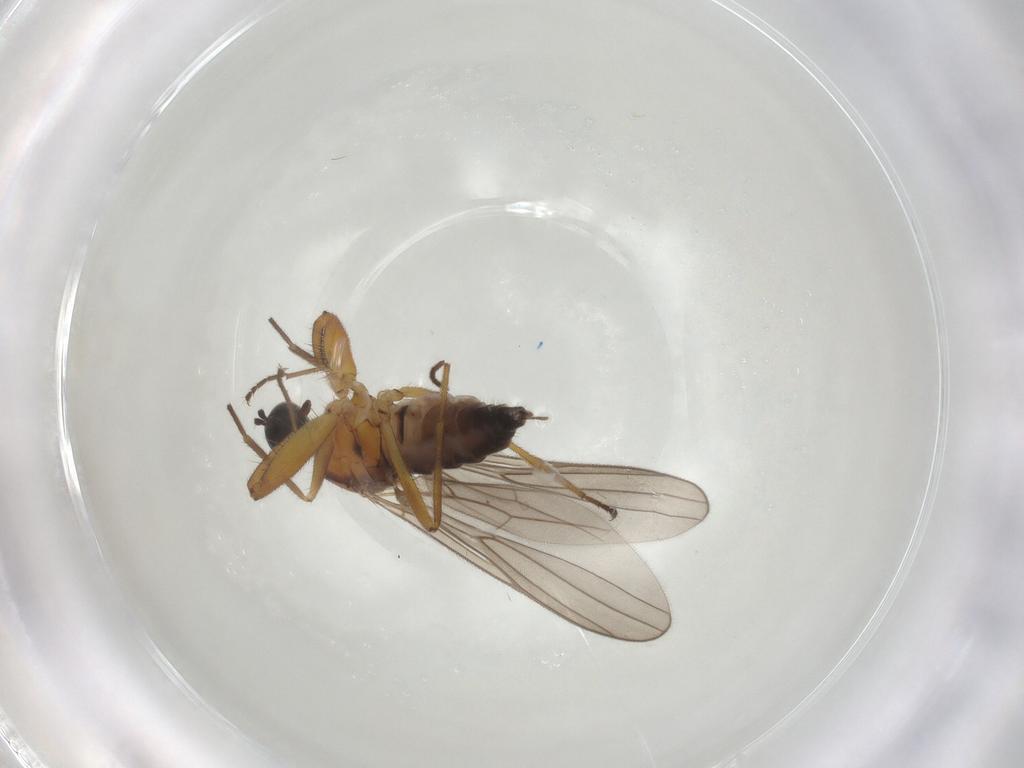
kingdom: Animalia
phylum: Arthropoda
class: Insecta
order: Diptera
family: Hybotidae
